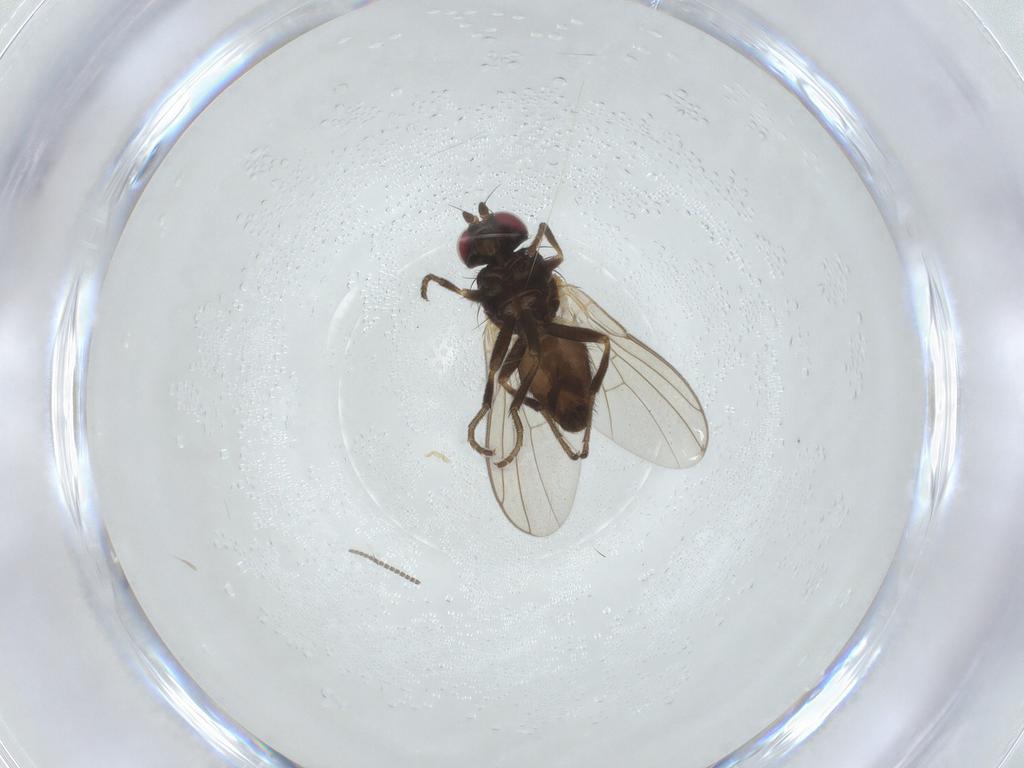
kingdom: Animalia
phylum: Arthropoda
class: Insecta
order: Diptera
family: Agromyzidae
